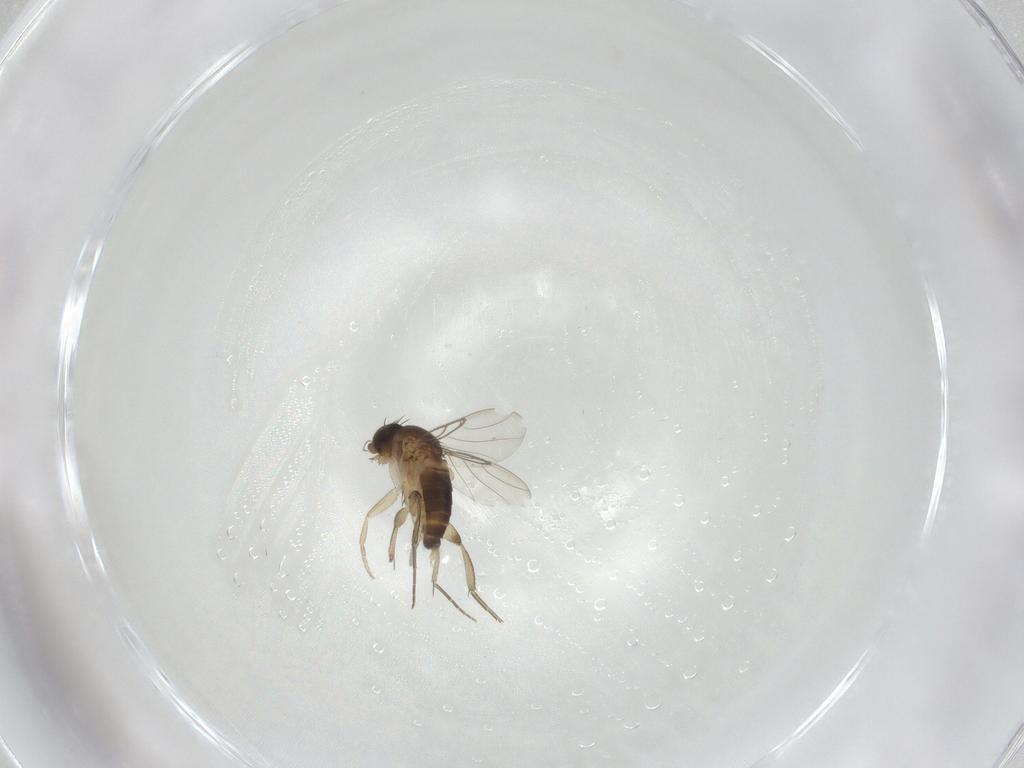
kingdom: Animalia
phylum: Arthropoda
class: Insecta
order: Diptera
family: Phoridae
